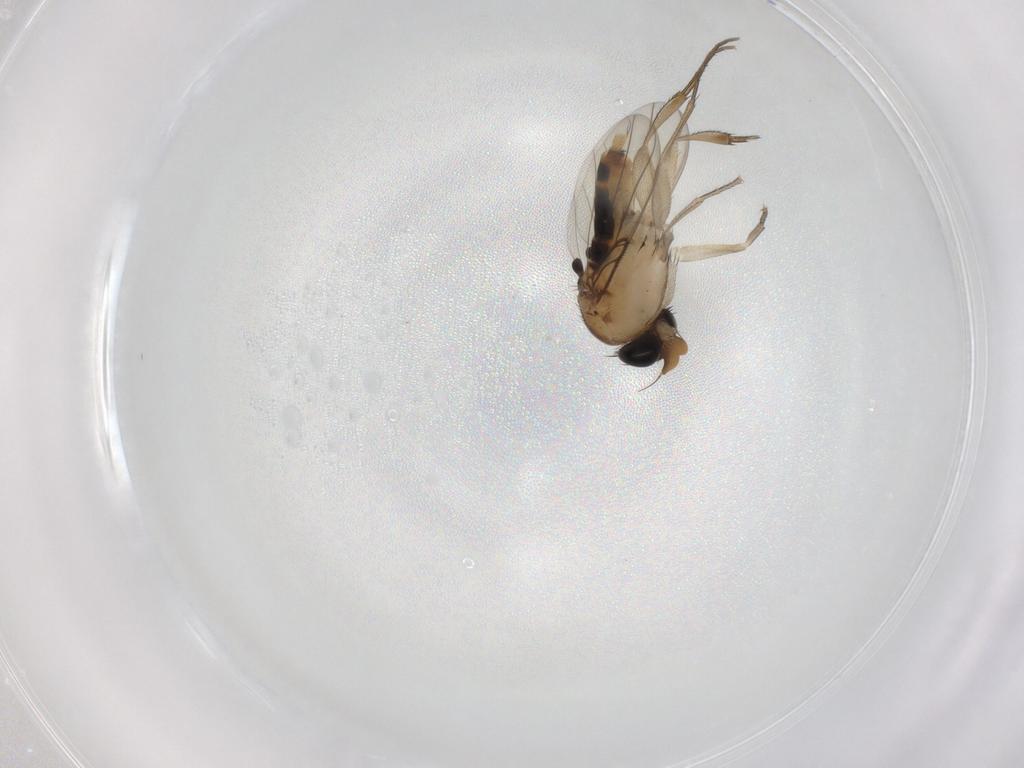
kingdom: Animalia
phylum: Arthropoda
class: Insecta
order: Diptera
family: Phoridae
